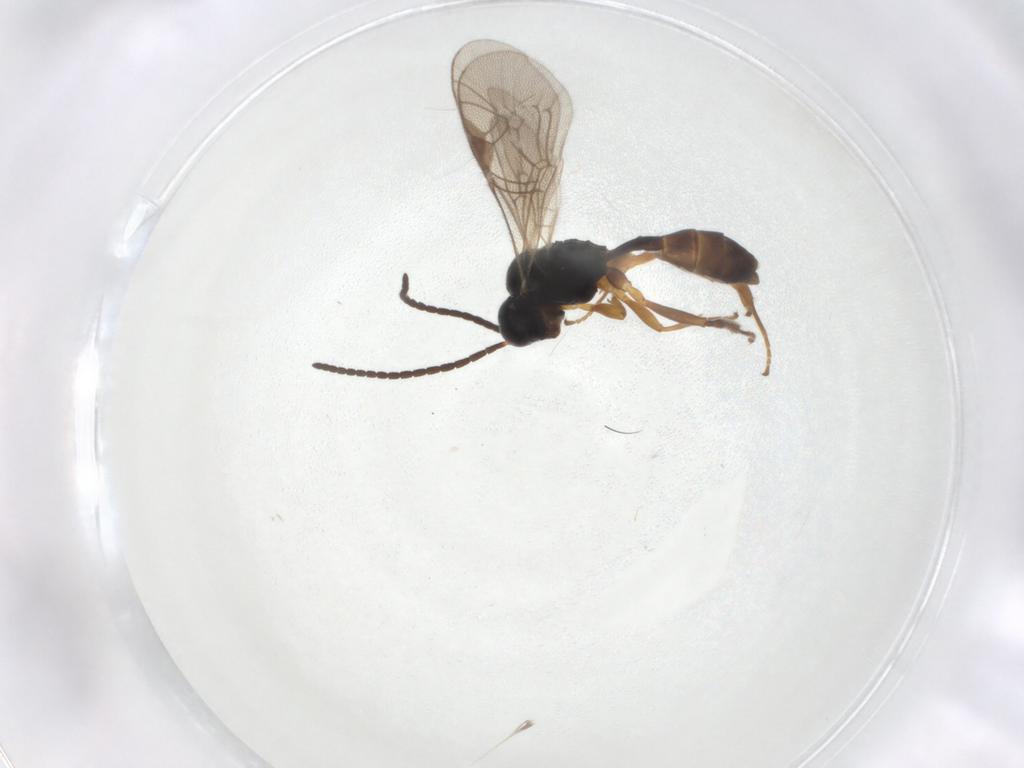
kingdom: Animalia
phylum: Arthropoda
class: Insecta
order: Hymenoptera
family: Ichneumonidae
